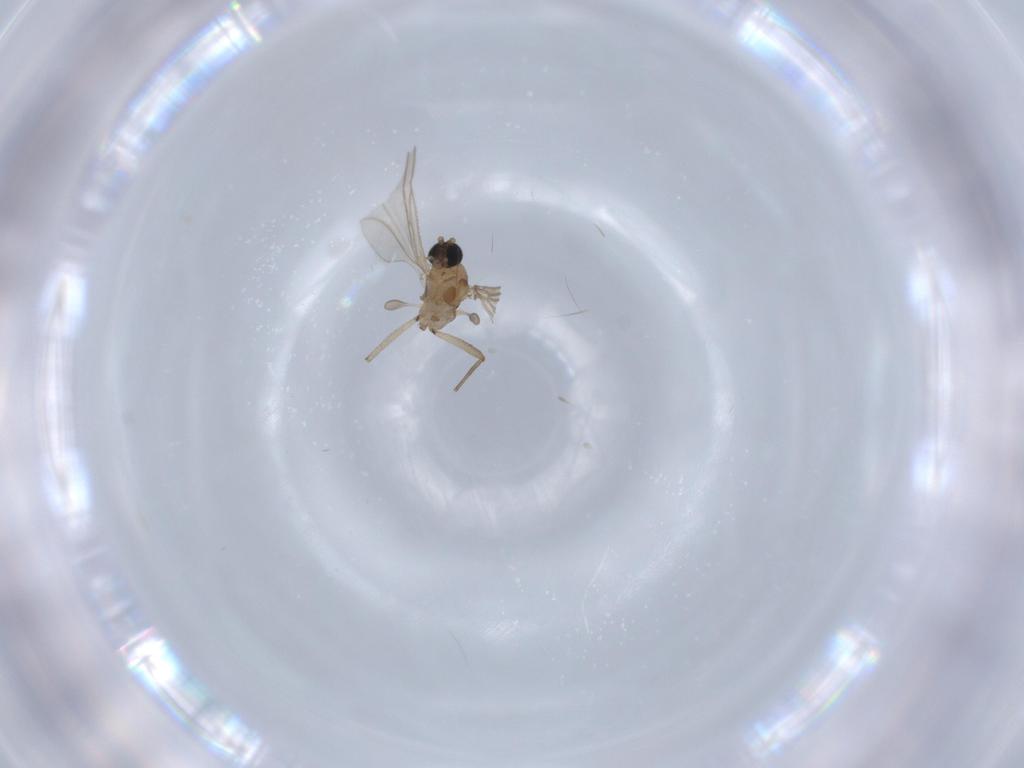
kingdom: Animalia
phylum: Arthropoda
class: Insecta
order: Diptera
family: Sciaridae
